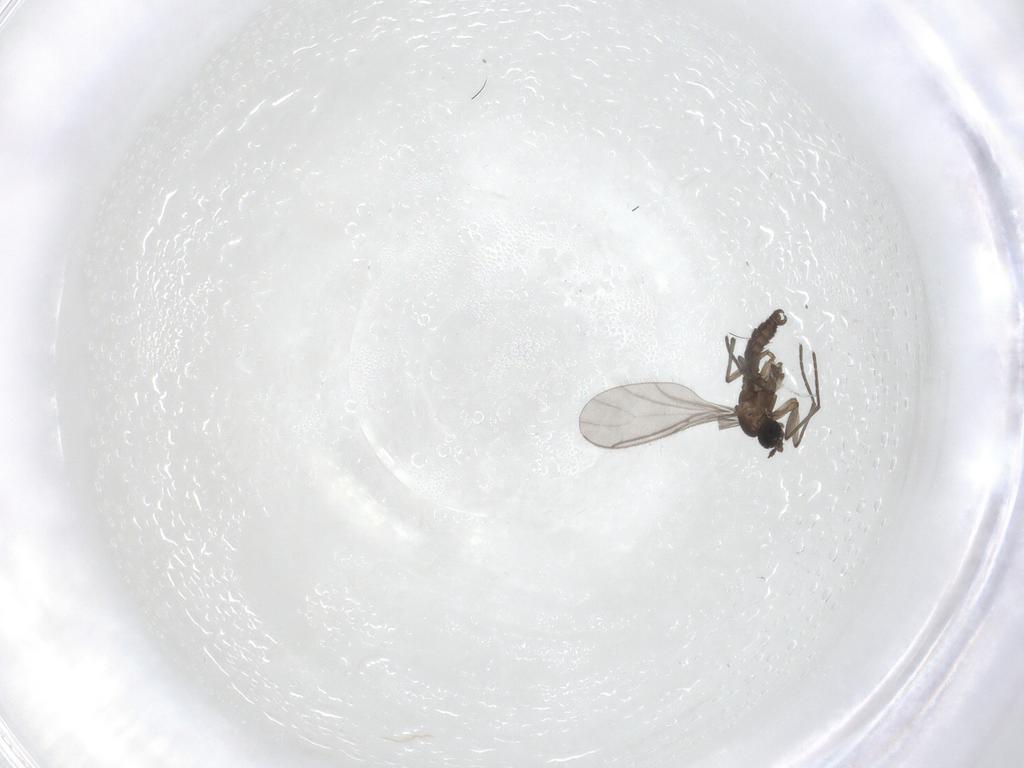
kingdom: Animalia
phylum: Arthropoda
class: Insecta
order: Diptera
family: Sciaridae
